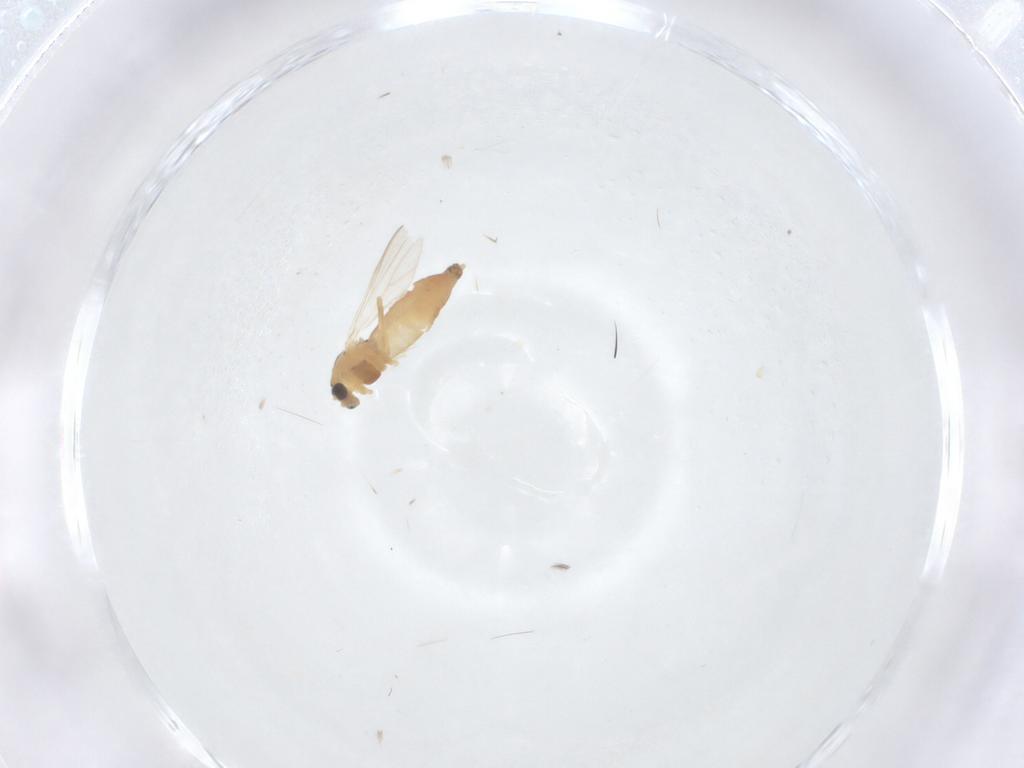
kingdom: Animalia
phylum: Arthropoda
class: Insecta
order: Diptera
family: Chironomidae
